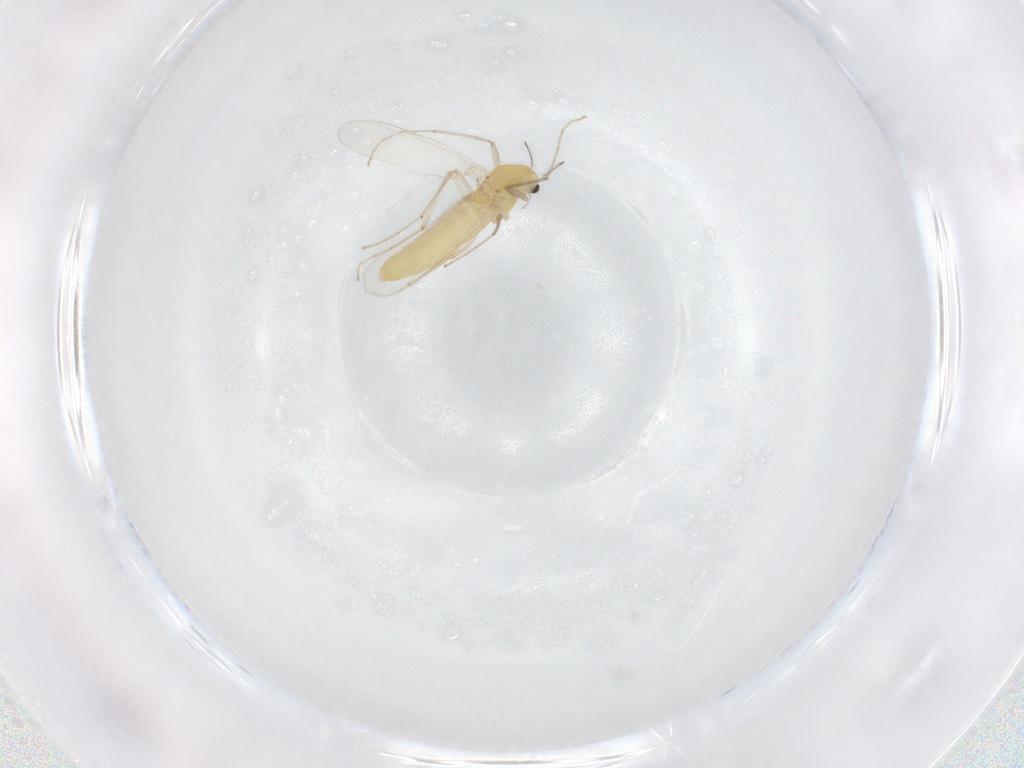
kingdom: Animalia
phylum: Arthropoda
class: Insecta
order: Diptera
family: Chironomidae
